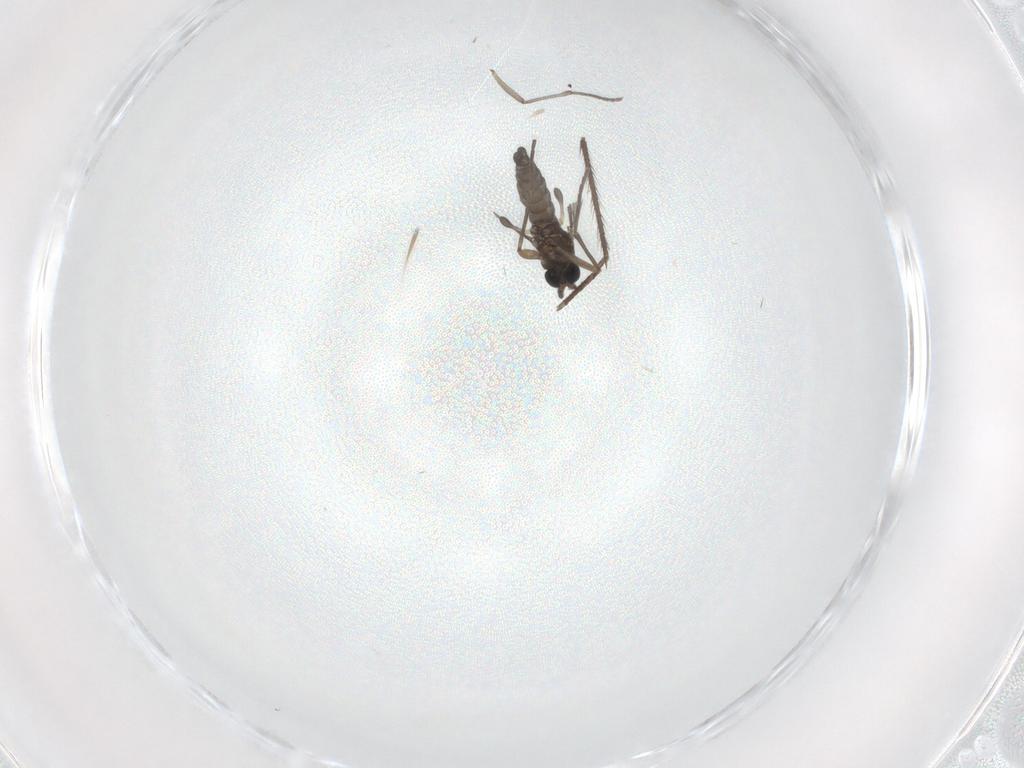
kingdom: Animalia
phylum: Arthropoda
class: Insecta
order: Diptera
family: Sciaridae
